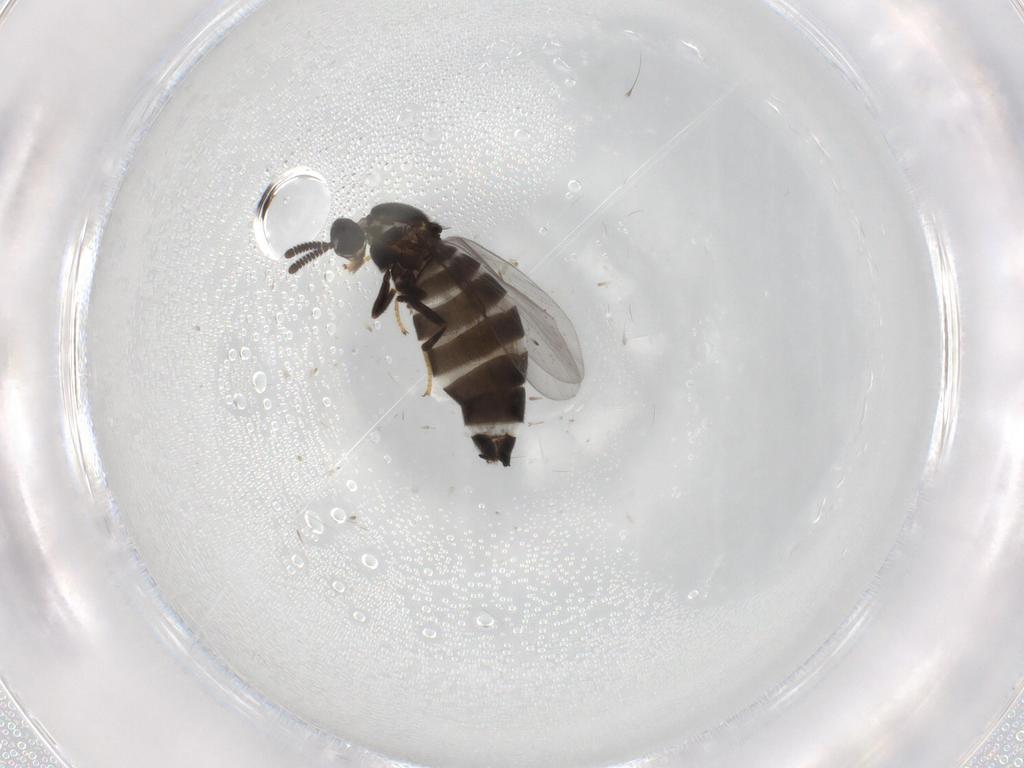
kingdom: Animalia
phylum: Arthropoda
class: Insecta
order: Diptera
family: Scatopsidae
